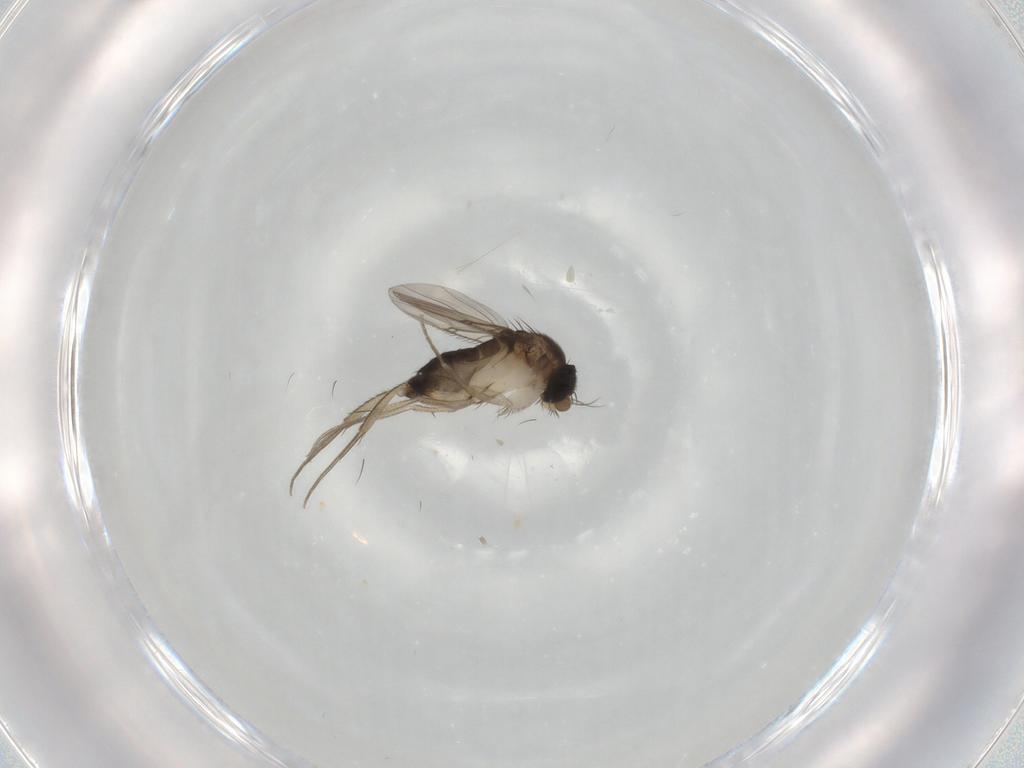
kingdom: Animalia
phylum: Arthropoda
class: Insecta
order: Diptera
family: Phoridae
